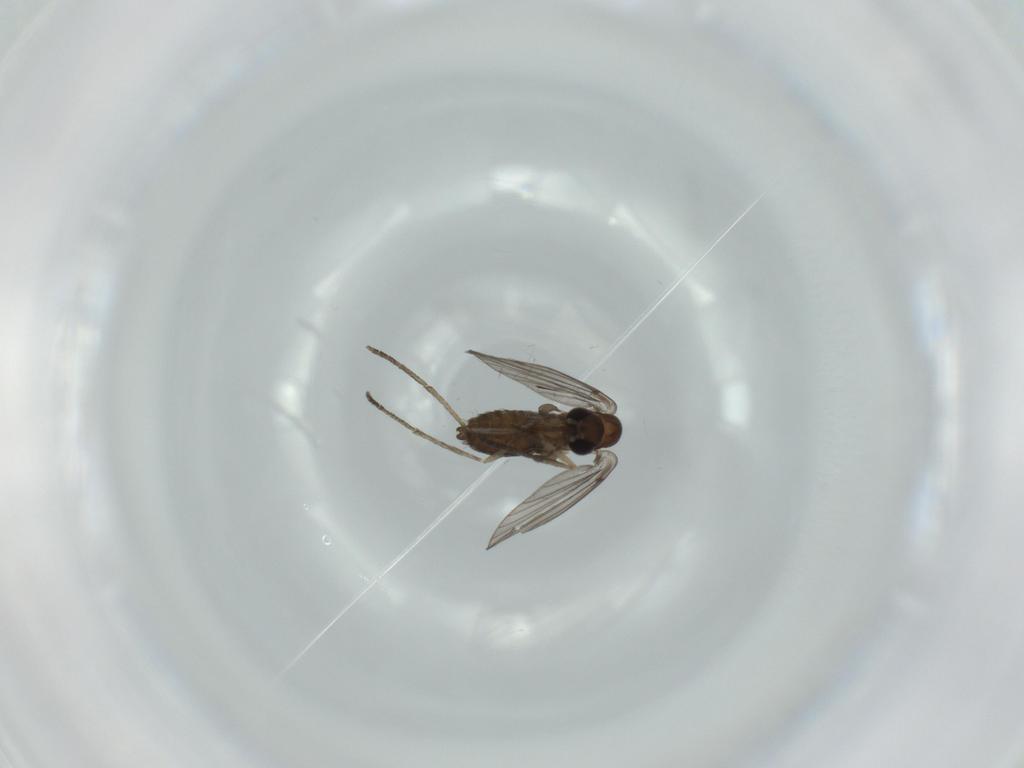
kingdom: Animalia
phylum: Arthropoda
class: Insecta
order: Diptera
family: Psychodidae
